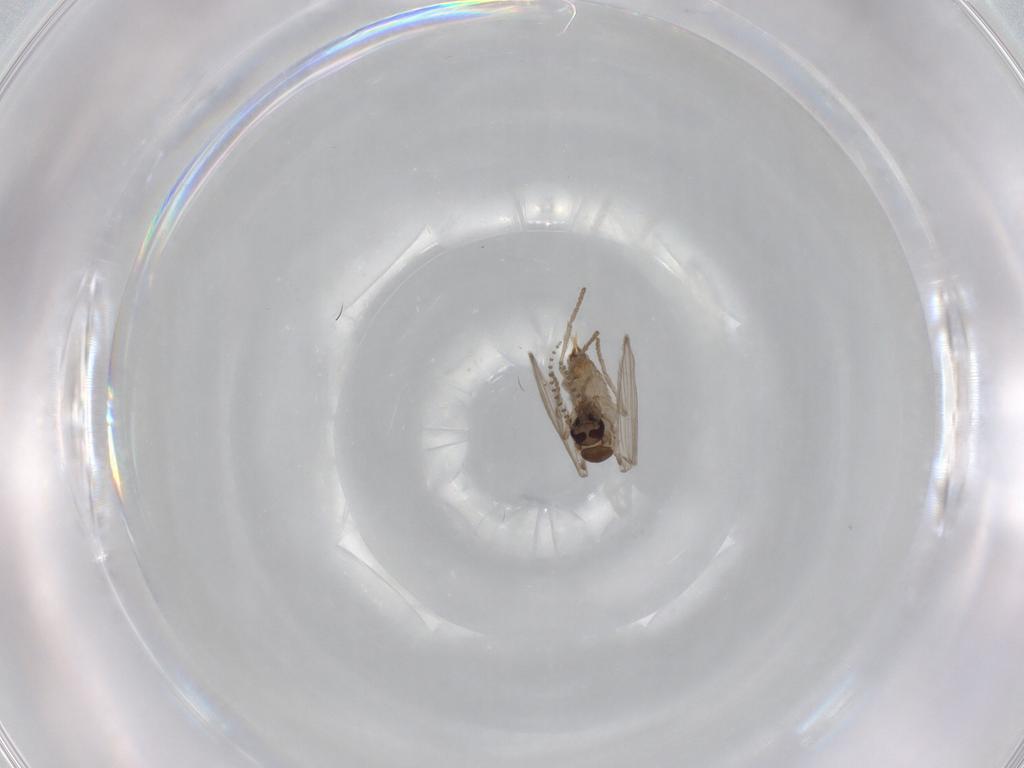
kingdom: Animalia
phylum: Arthropoda
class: Insecta
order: Diptera
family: Psychodidae
